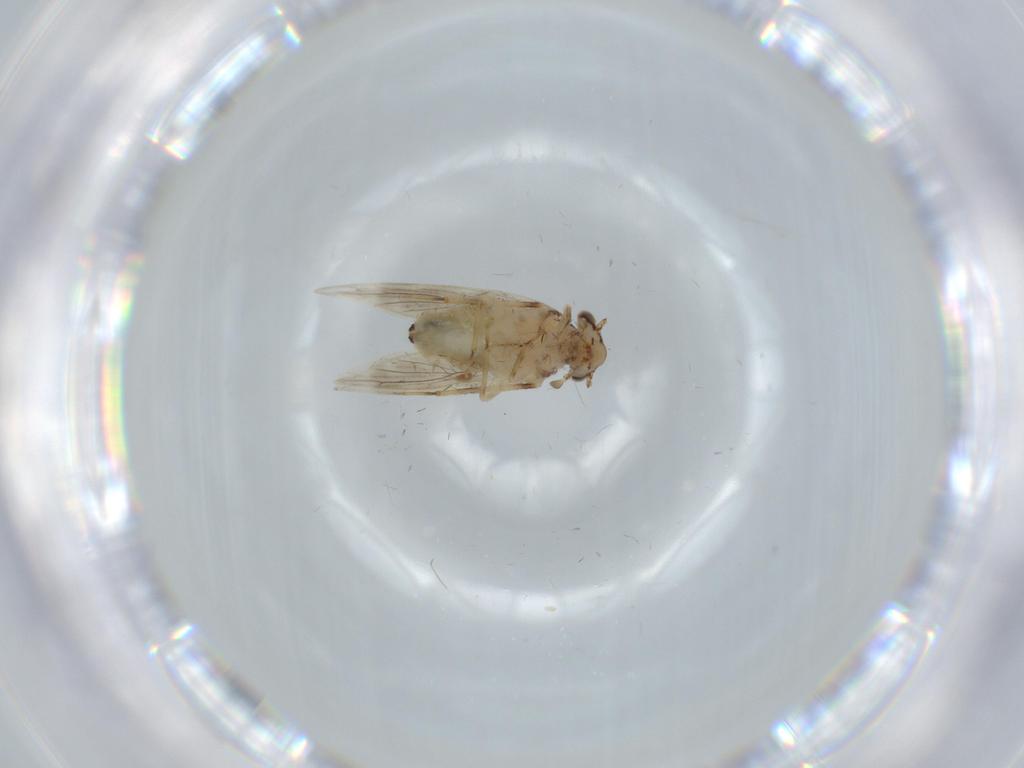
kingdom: Animalia
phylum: Arthropoda
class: Insecta
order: Psocodea
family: Lepidopsocidae
